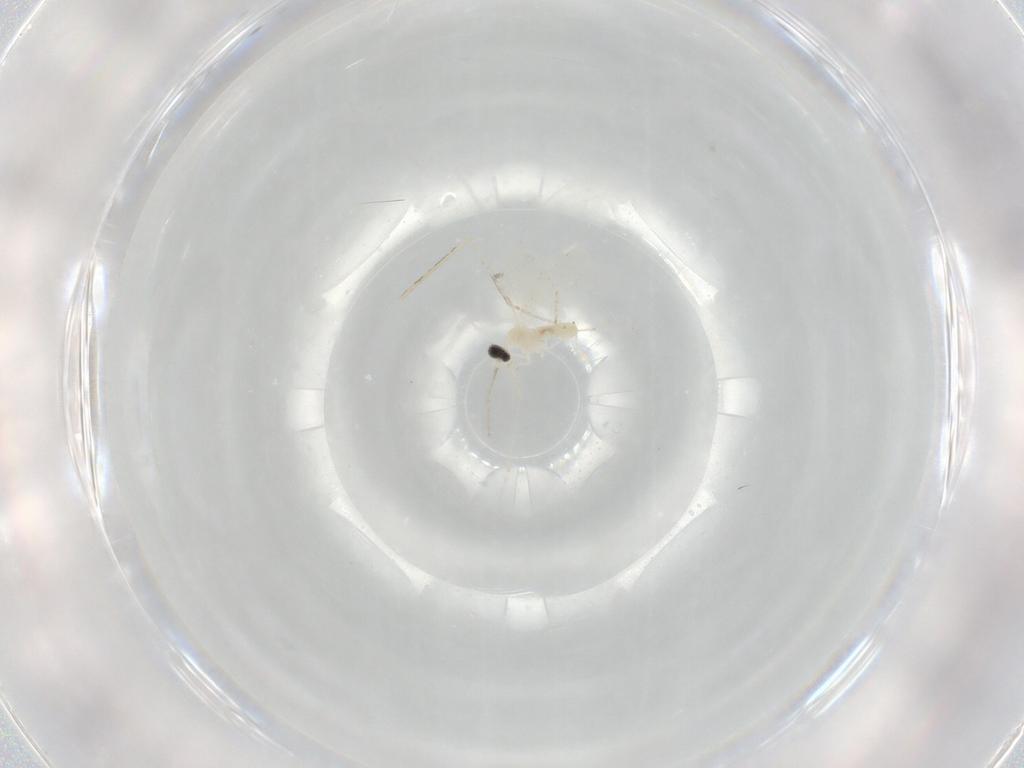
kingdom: Animalia
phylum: Arthropoda
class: Insecta
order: Diptera
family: Cecidomyiidae
